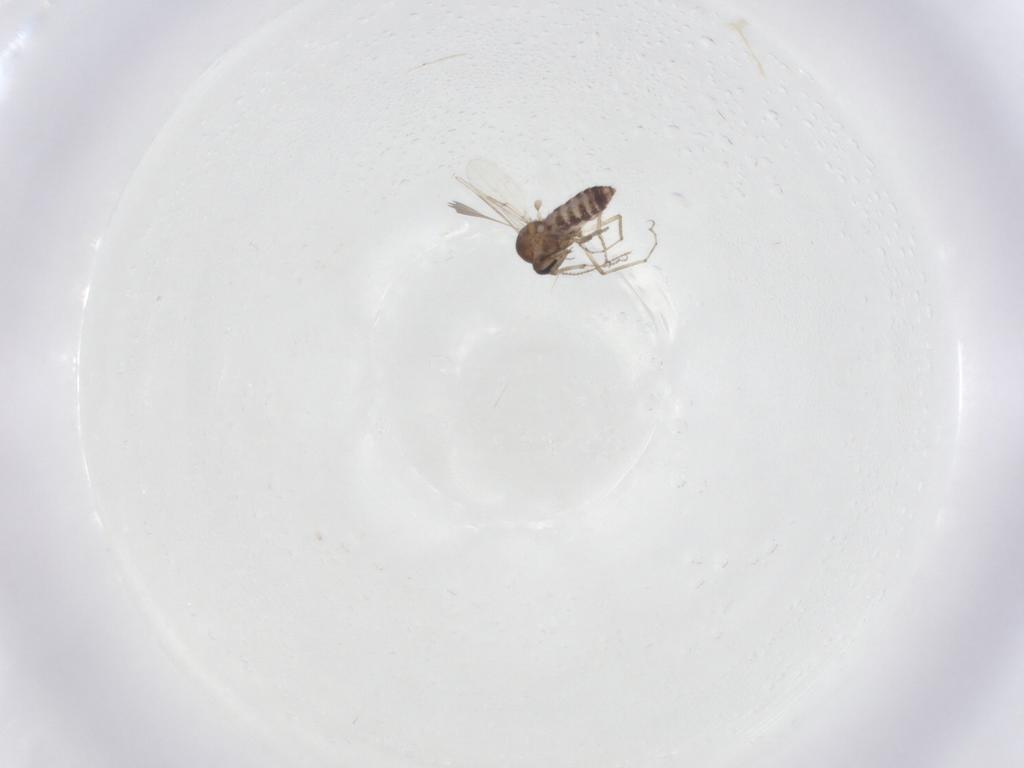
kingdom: Animalia
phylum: Arthropoda
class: Insecta
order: Diptera
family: Ceratopogonidae
